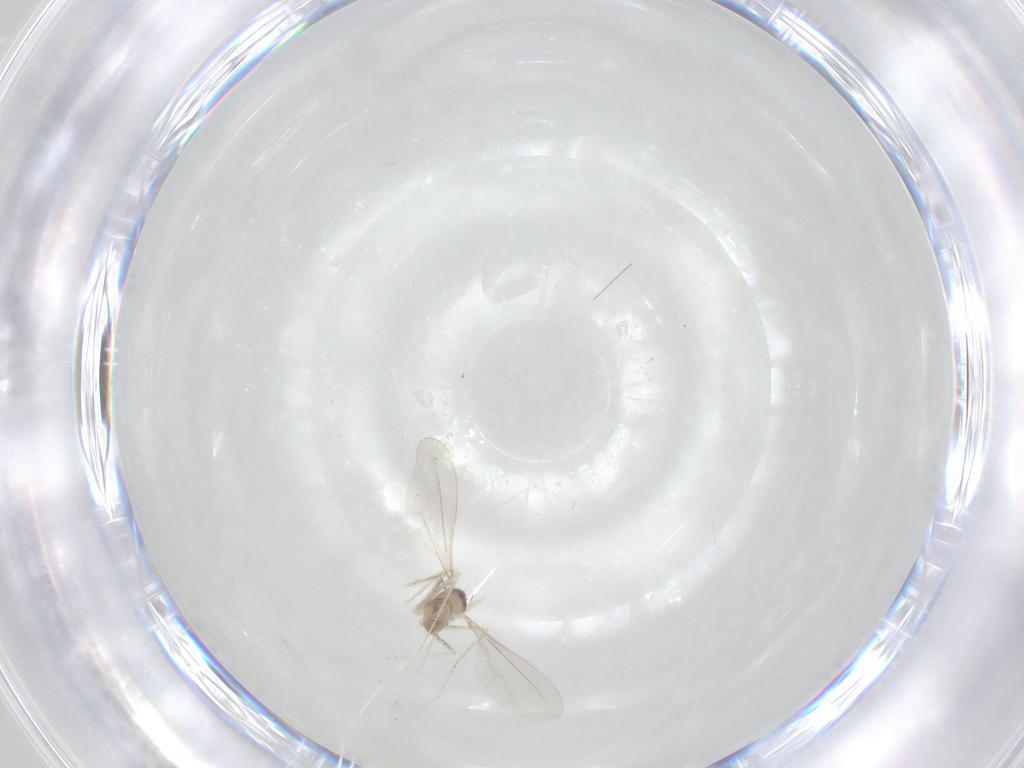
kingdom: Animalia
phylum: Arthropoda
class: Insecta
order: Diptera
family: Cecidomyiidae
